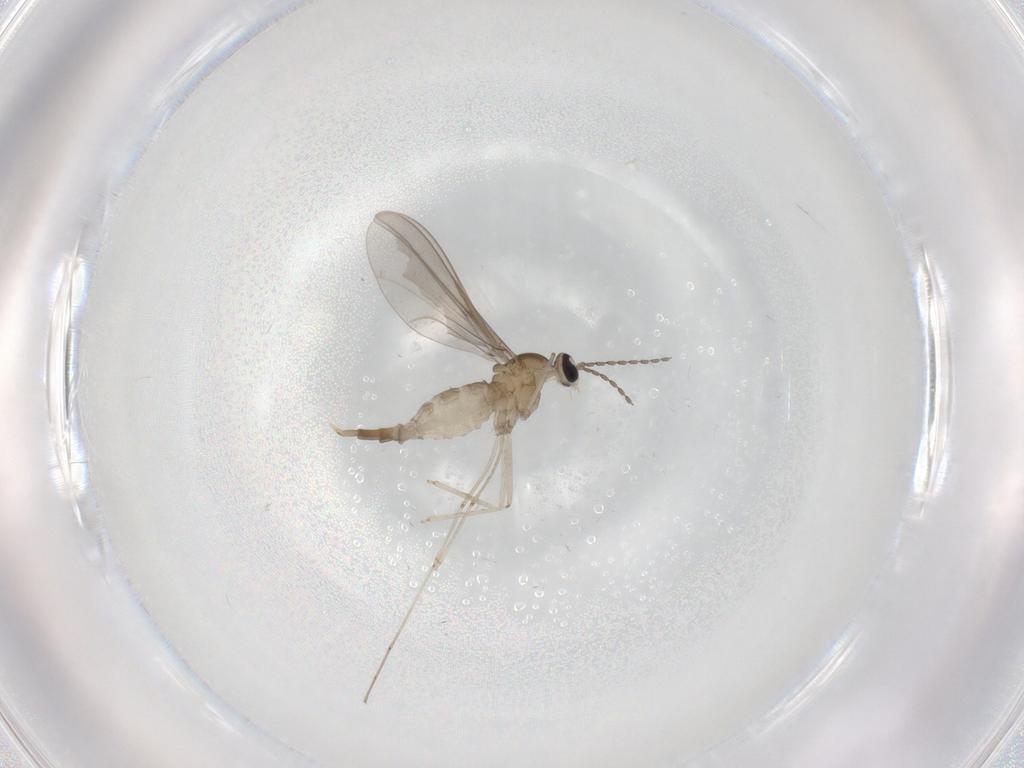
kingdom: Animalia
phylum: Arthropoda
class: Insecta
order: Diptera
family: Cecidomyiidae
